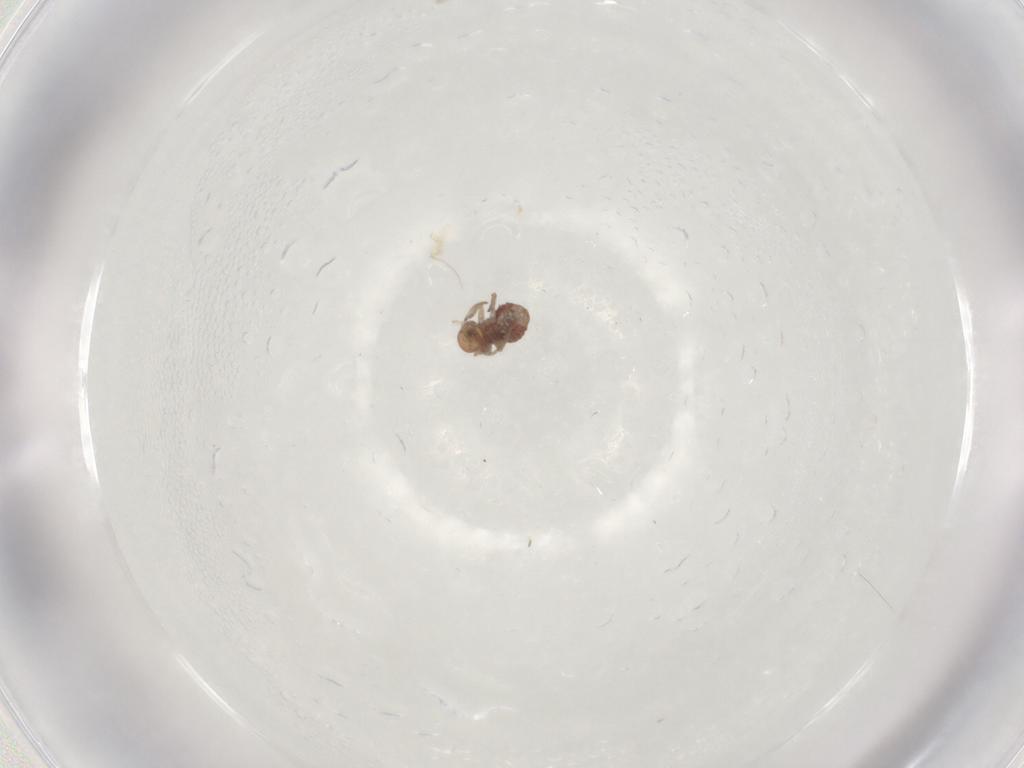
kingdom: Animalia
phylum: Arthropoda
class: Insecta
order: Psocodea
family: Peripsocidae
